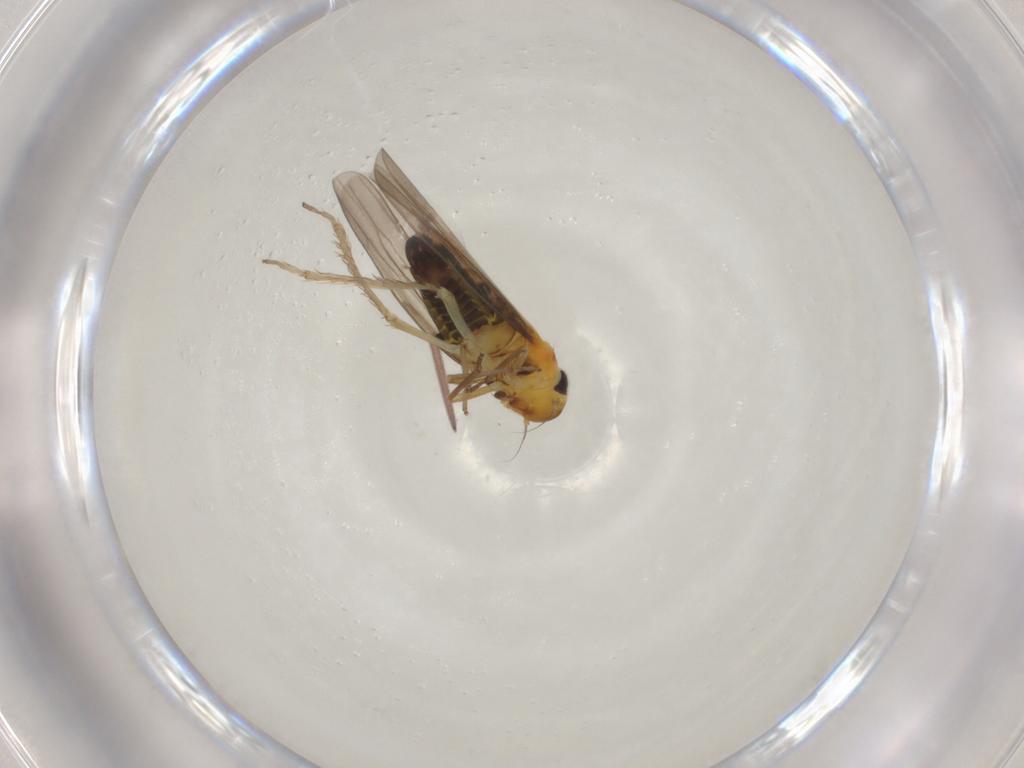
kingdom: Animalia
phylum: Arthropoda
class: Insecta
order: Hemiptera
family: Cicadellidae
